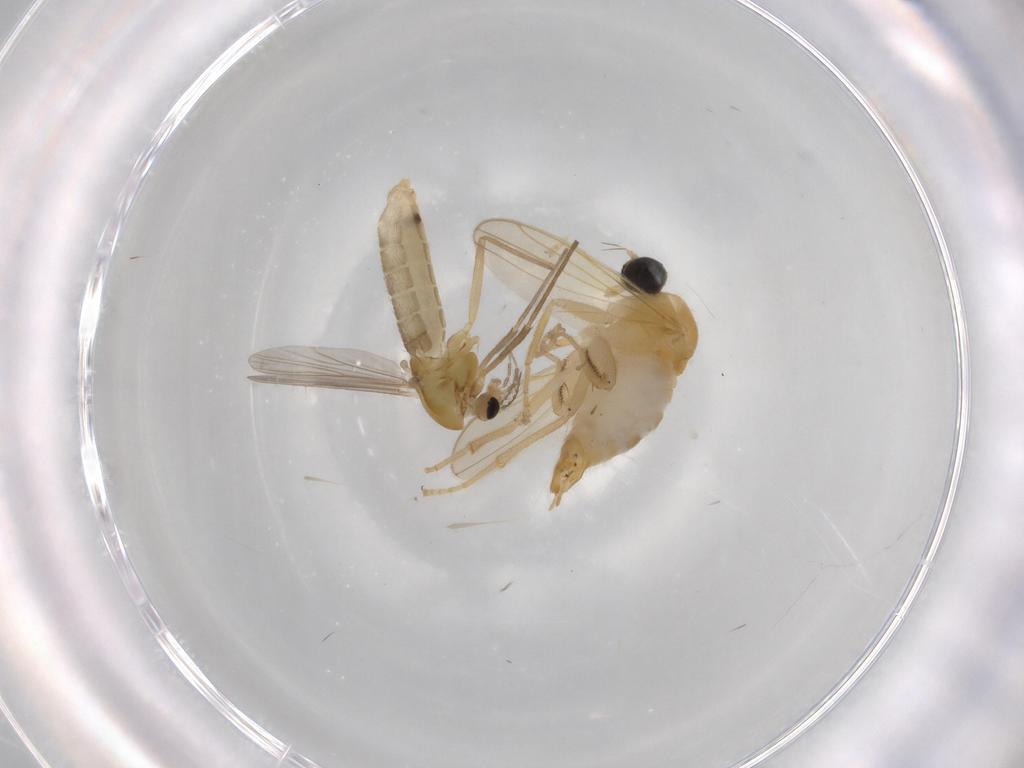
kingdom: Animalia
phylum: Arthropoda
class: Insecta
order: Diptera
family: Hybotidae
